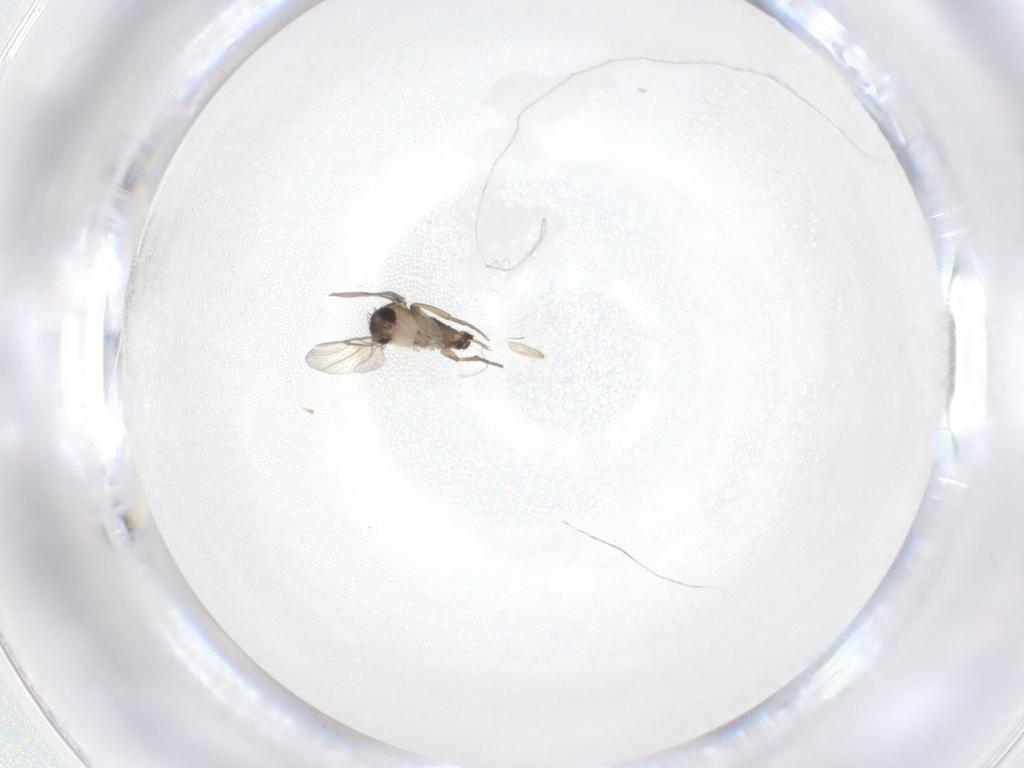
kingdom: Animalia
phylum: Arthropoda
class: Insecta
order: Diptera
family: Phoridae
